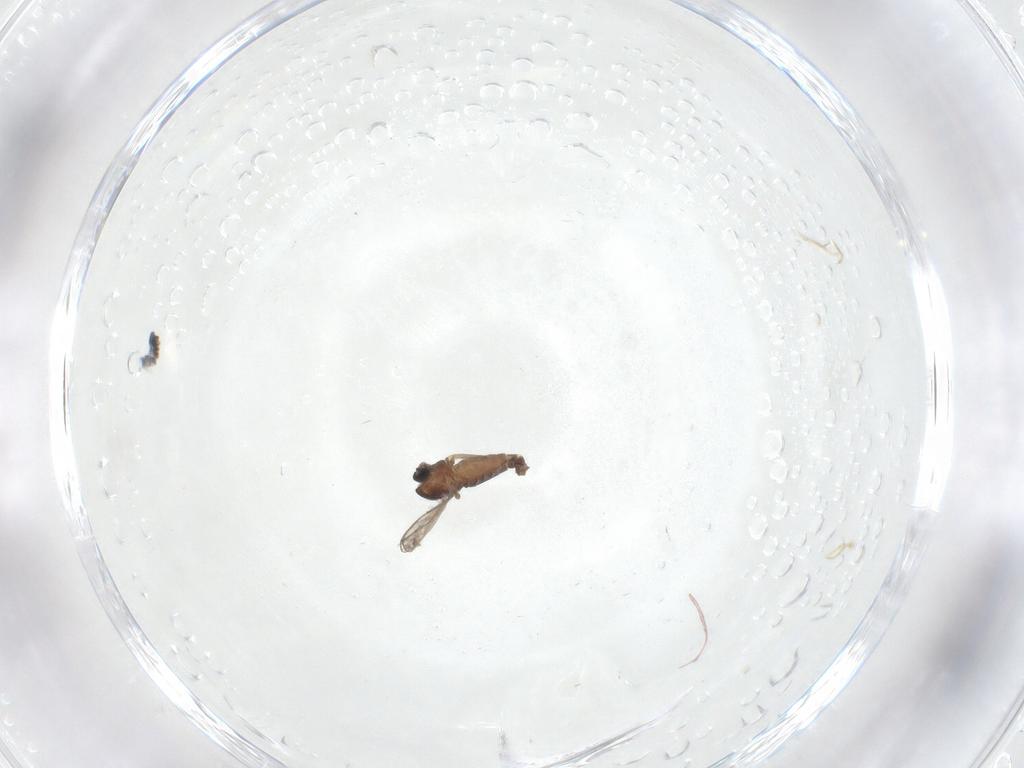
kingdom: Animalia
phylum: Arthropoda
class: Insecta
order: Diptera
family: Chironomidae
